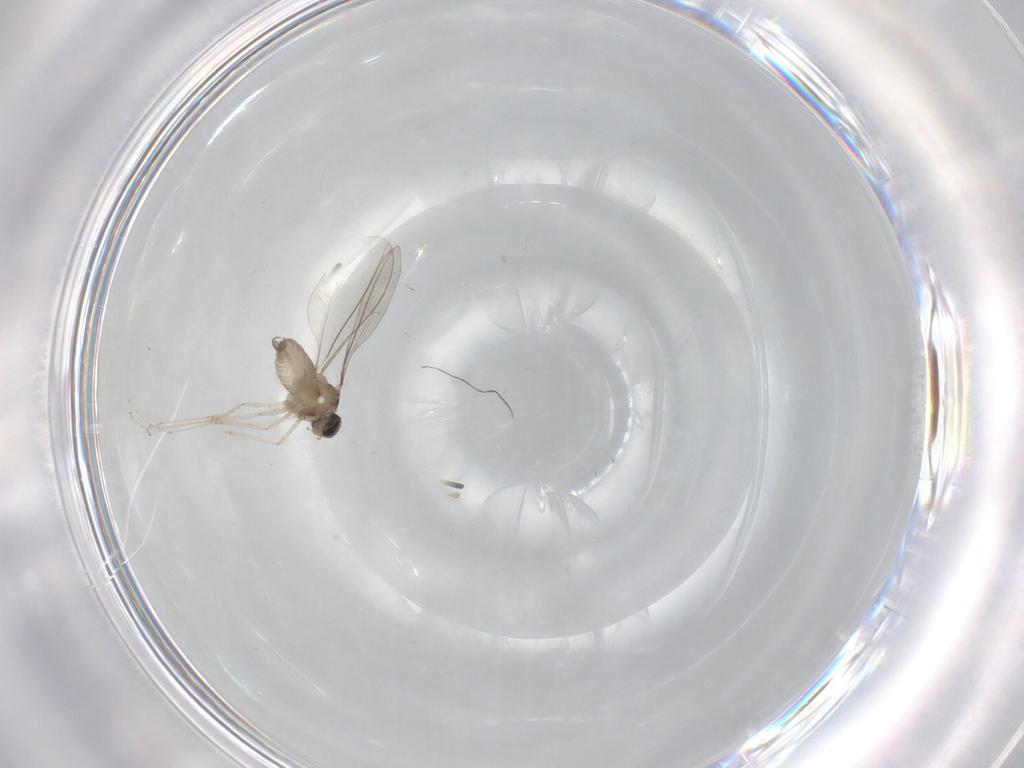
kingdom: Animalia
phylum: Arthropoda
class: Insecta
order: Diptera
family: Cecidomyiidae
